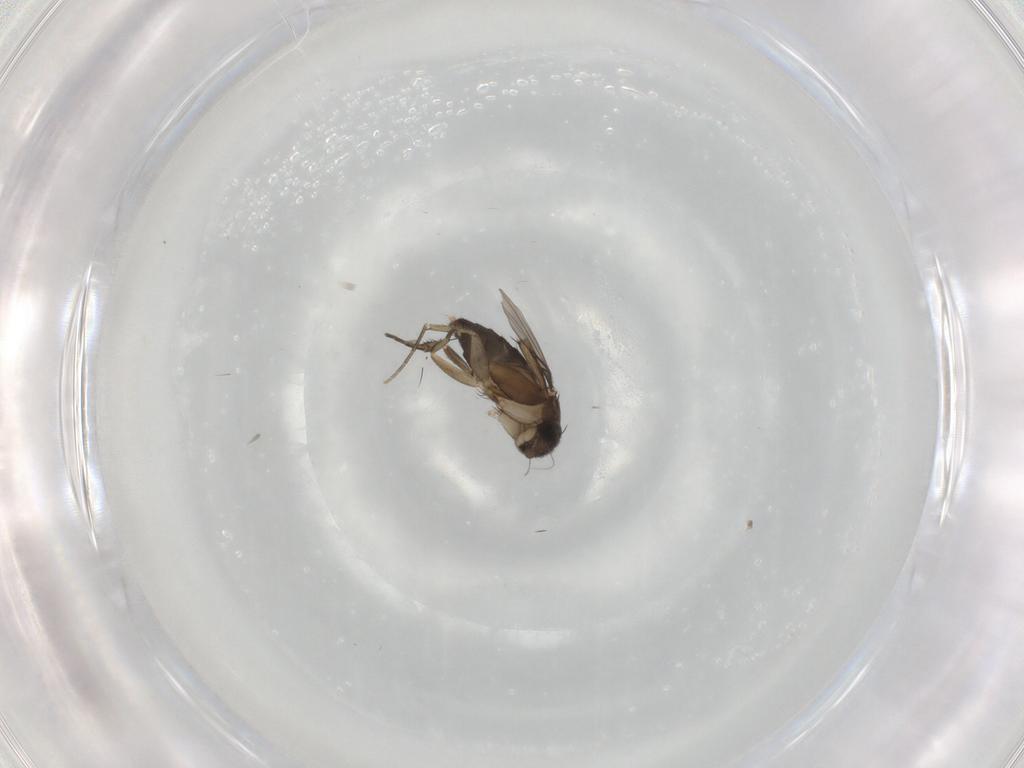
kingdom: Animalia
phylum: Arthropoda
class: Insecta
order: Diptera
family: Phoridae
